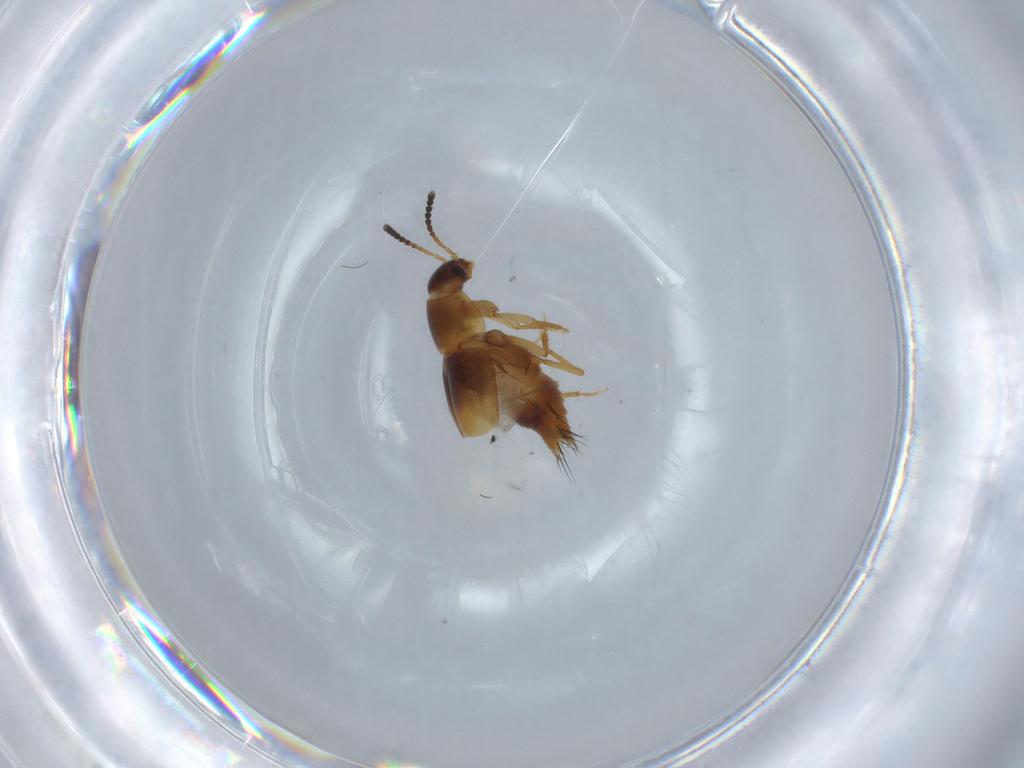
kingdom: Animalia
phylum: Arthropoda
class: Insecta
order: Coleoptera
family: Staphylinidae
